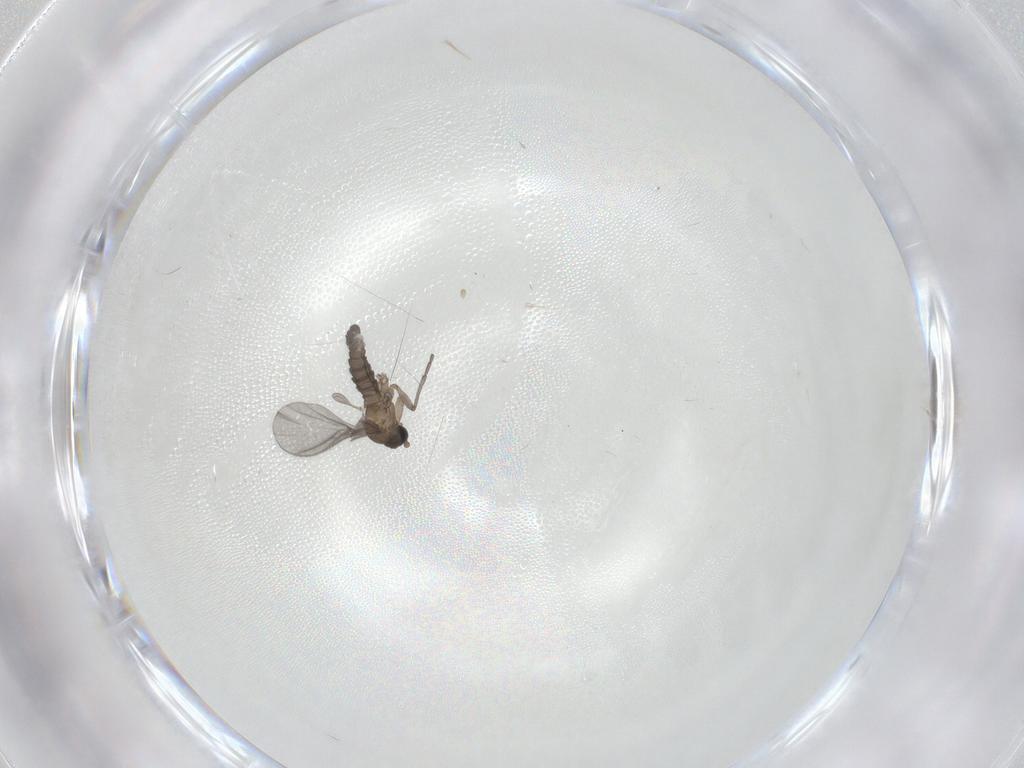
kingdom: Animalia
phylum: Arthropoda
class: Insecta
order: Diptera
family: Sciaridae
